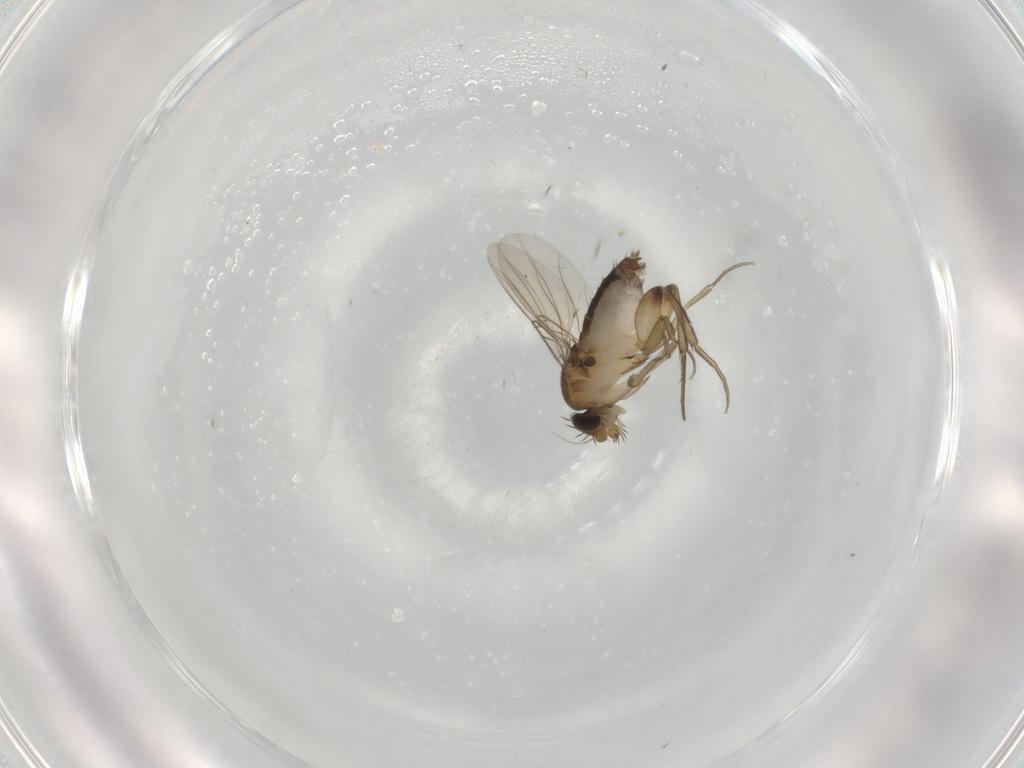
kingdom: Animalia
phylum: Arthropoda
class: Insecta
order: Diptera
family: Phoridae
